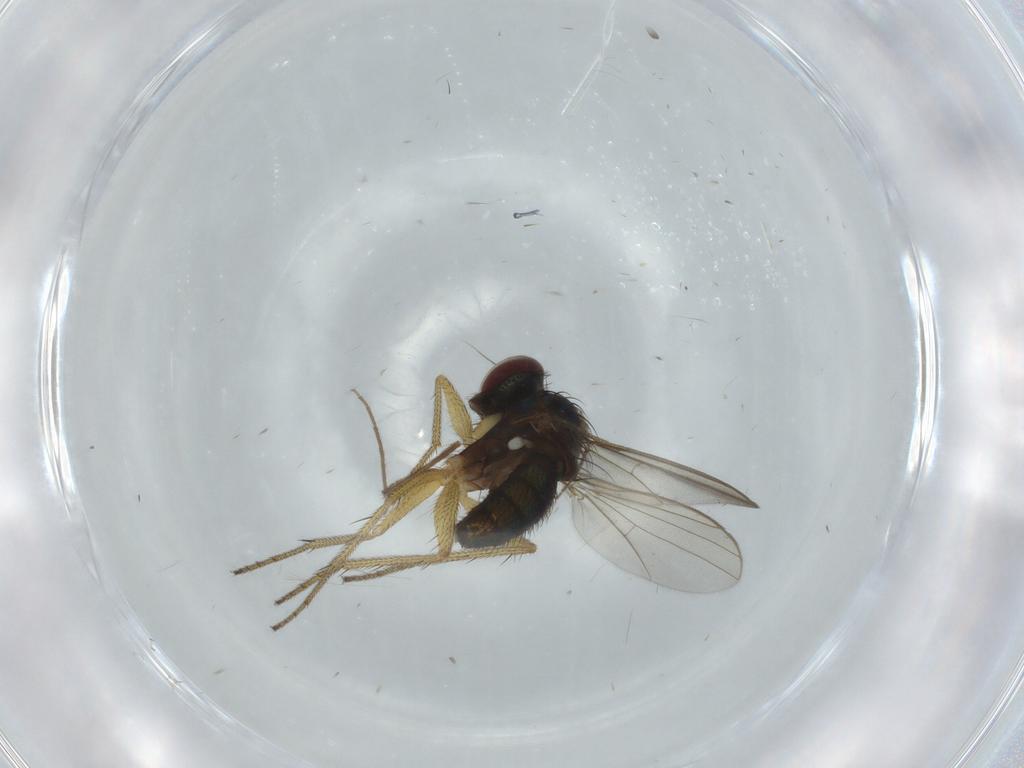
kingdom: Animalia
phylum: Arthropoda
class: Insecta
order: Diptera
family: Dolichopodidae
